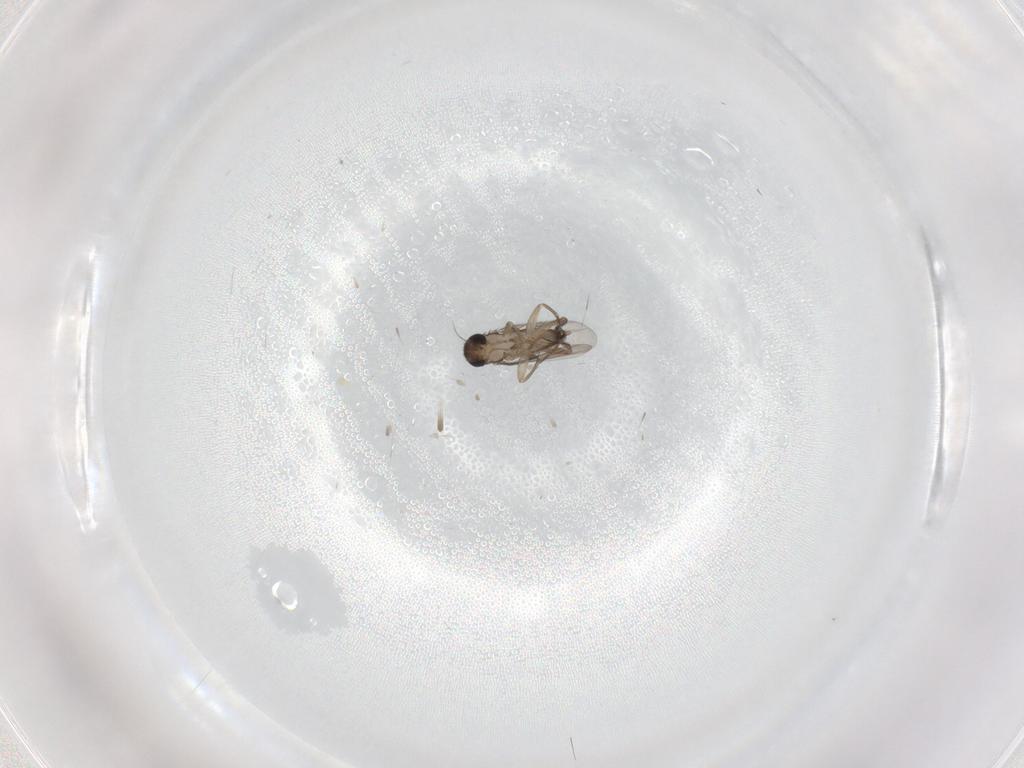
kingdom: Animalia
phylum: Arthropoda
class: Insecta
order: Diptera
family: Phoridae
